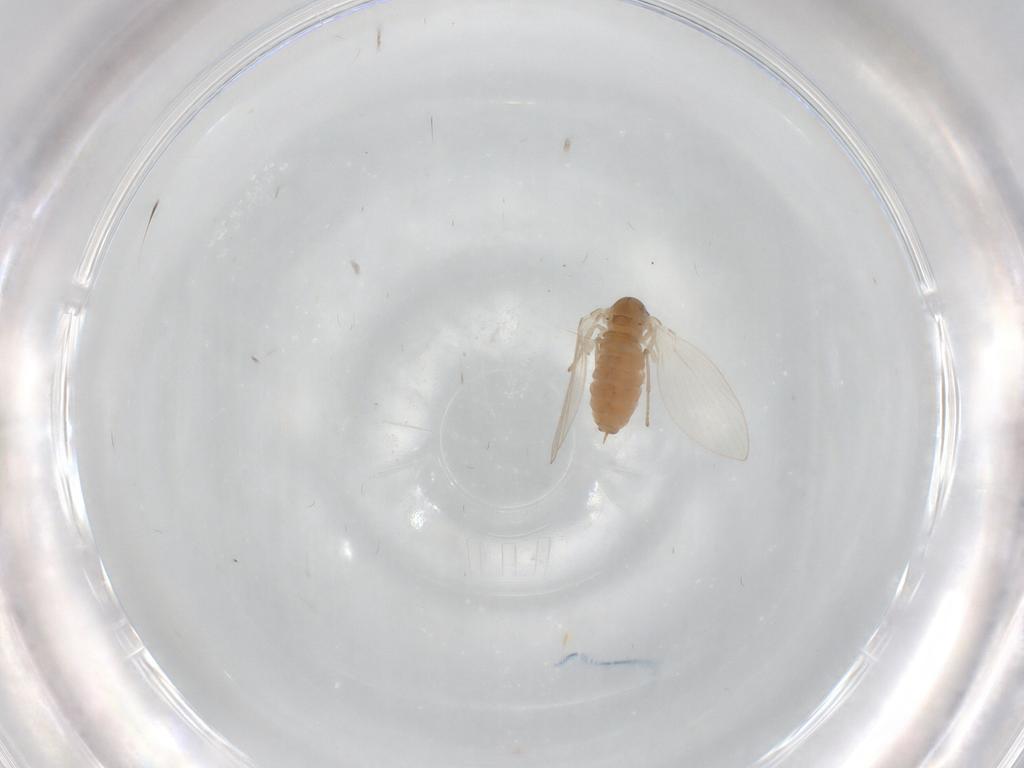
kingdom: Animalia
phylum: Arthropoda
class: Insecta
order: Diptera
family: Psychodidae
